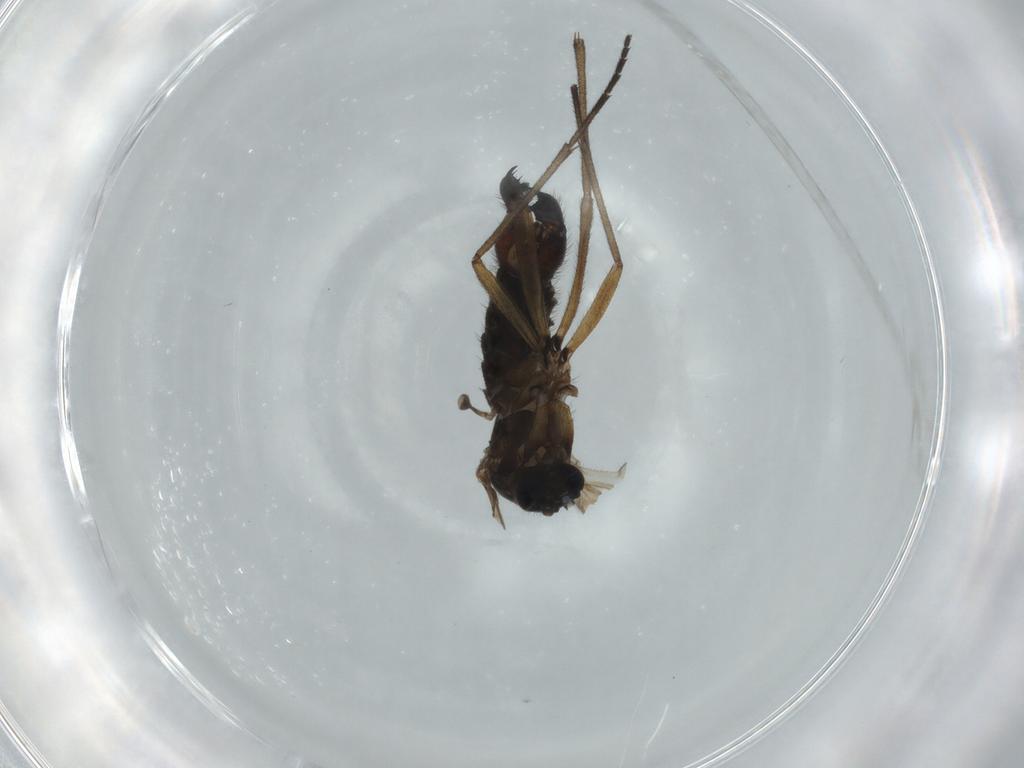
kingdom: Animalia
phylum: Arthropoda
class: Insecta
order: Diptera
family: Sciaridae
